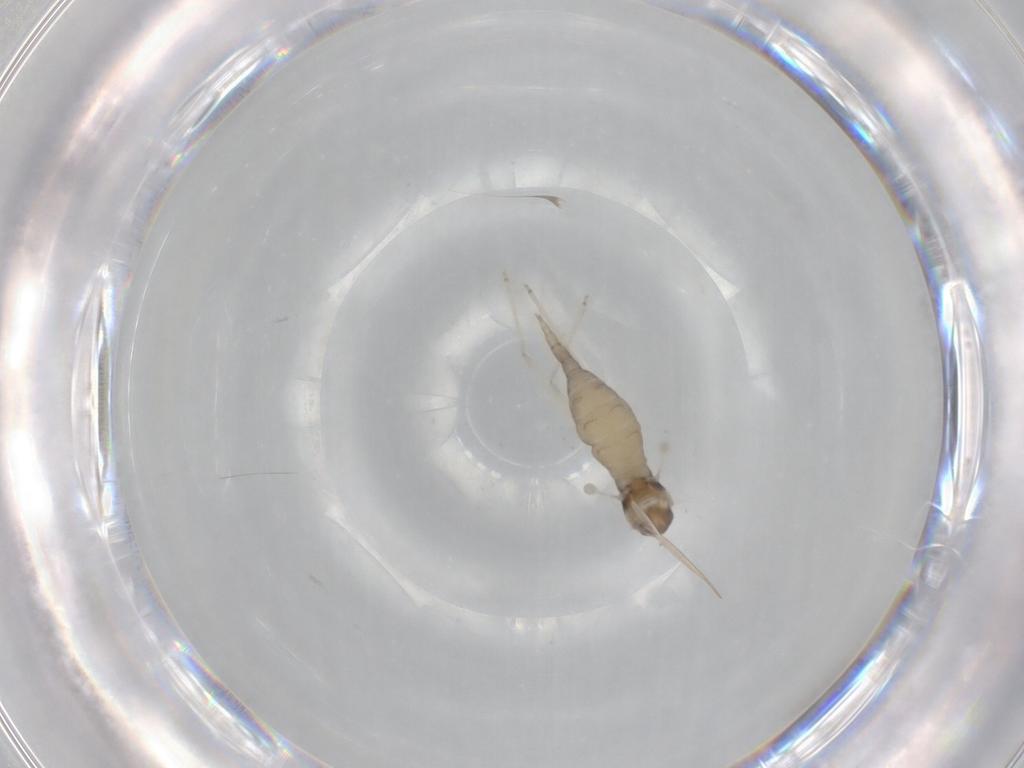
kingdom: Animalia
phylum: Arthropoda
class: Insecta
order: Diptera
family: Cecidomyiidae
